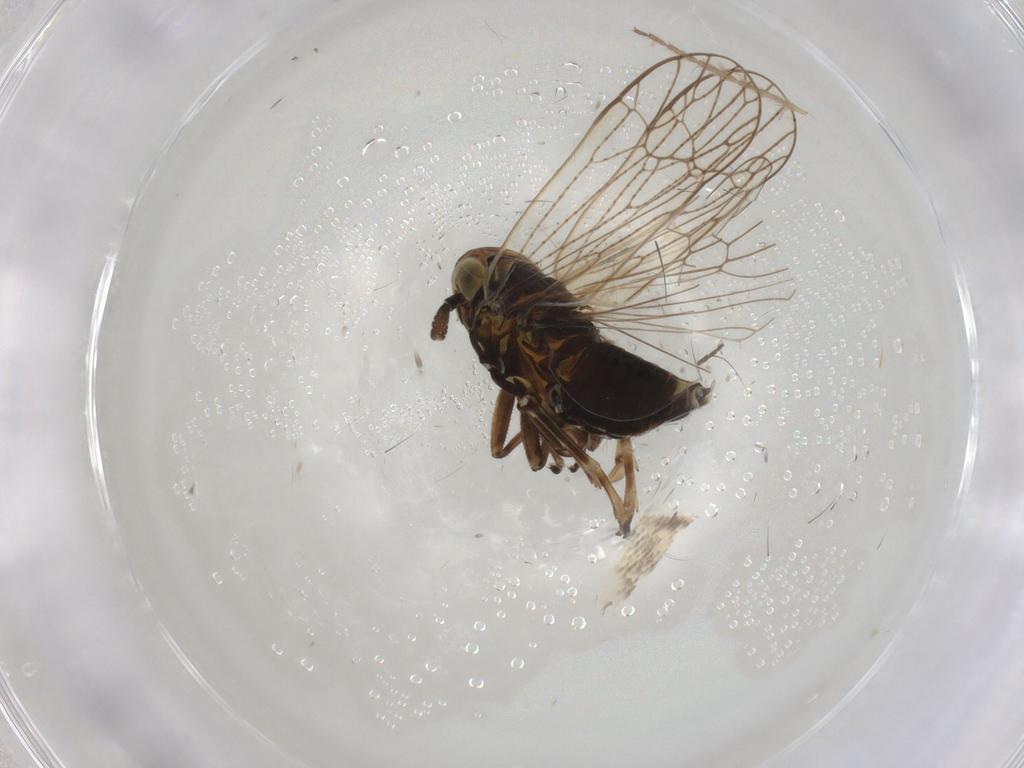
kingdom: Animalia
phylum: Arthropoda
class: Insecta
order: Hemiptera
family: Delphacidae
